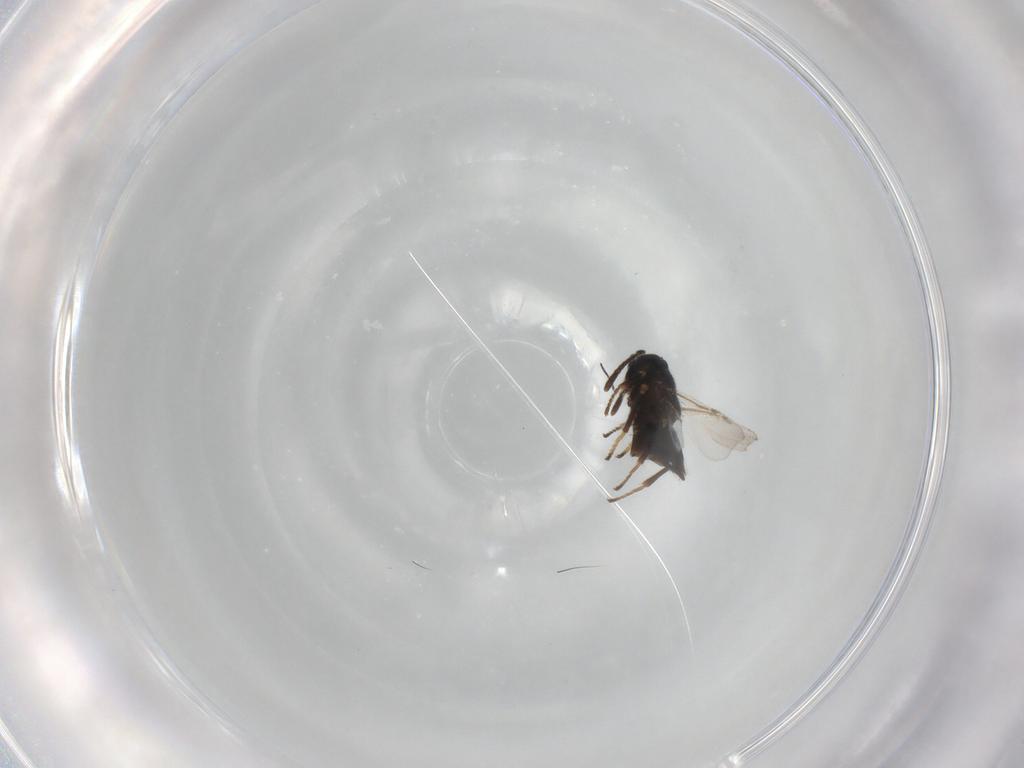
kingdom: Animalia
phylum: Arthropoda
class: Insecta
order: Hymenoptera
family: Encyrtidae
